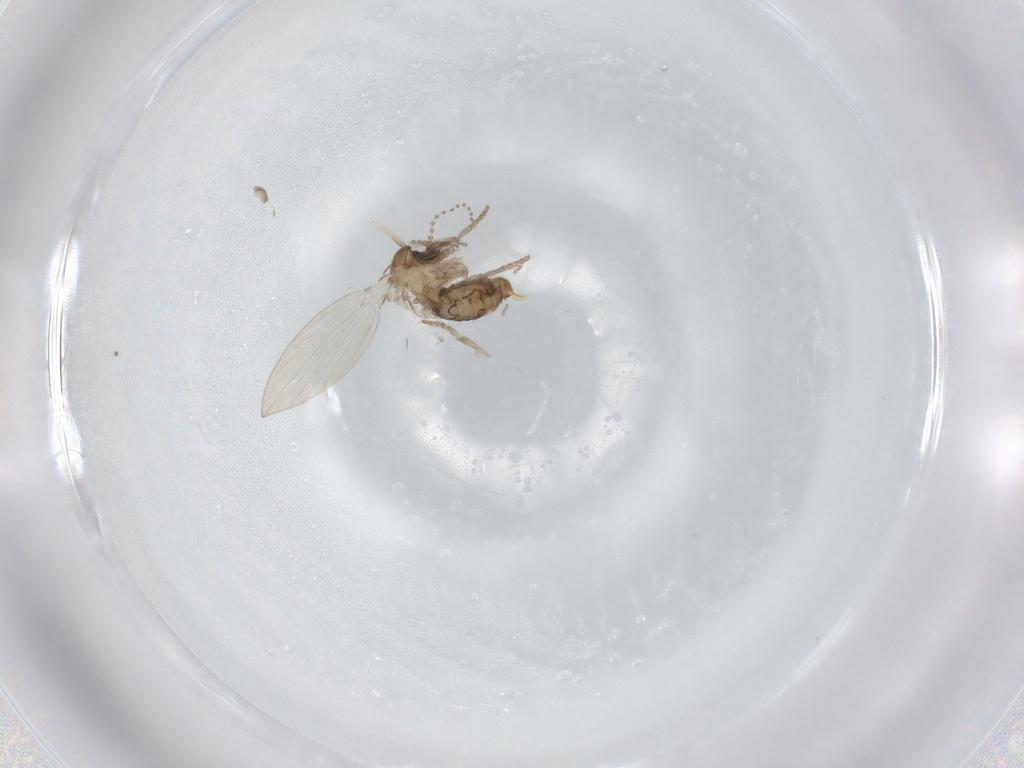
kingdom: Animalia
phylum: Arthropoda
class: Insecta
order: Diptera
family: Psychodidae
